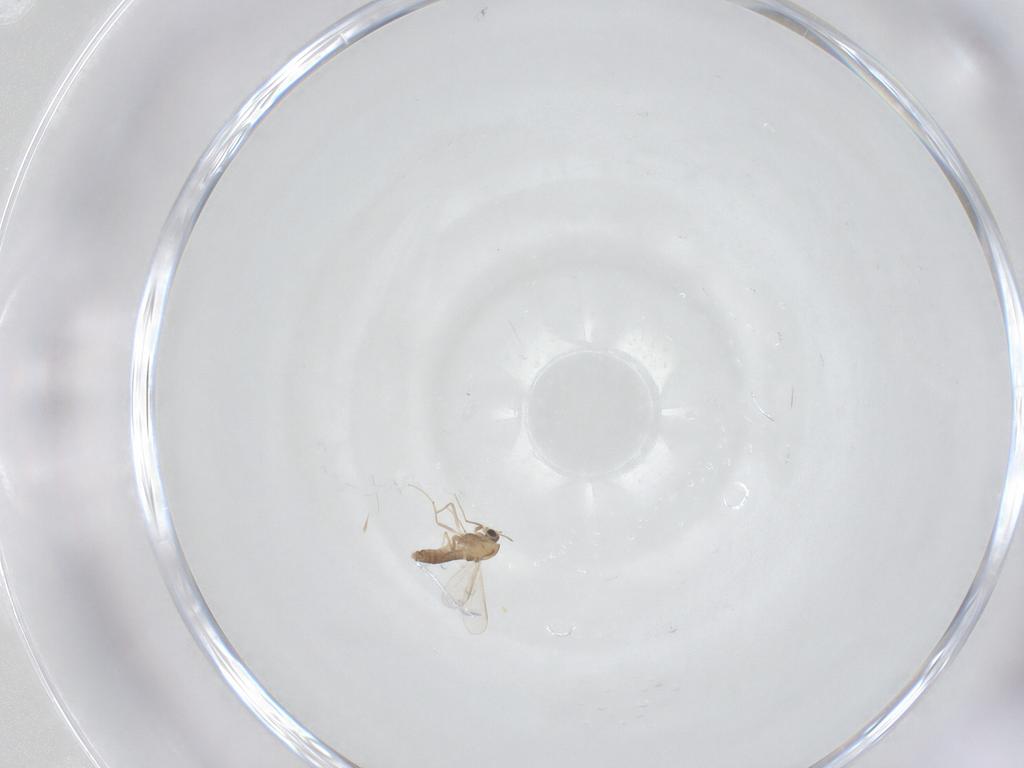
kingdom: Animalia
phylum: Arthropoda
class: Insecta
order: Diptera
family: Chironomidae
